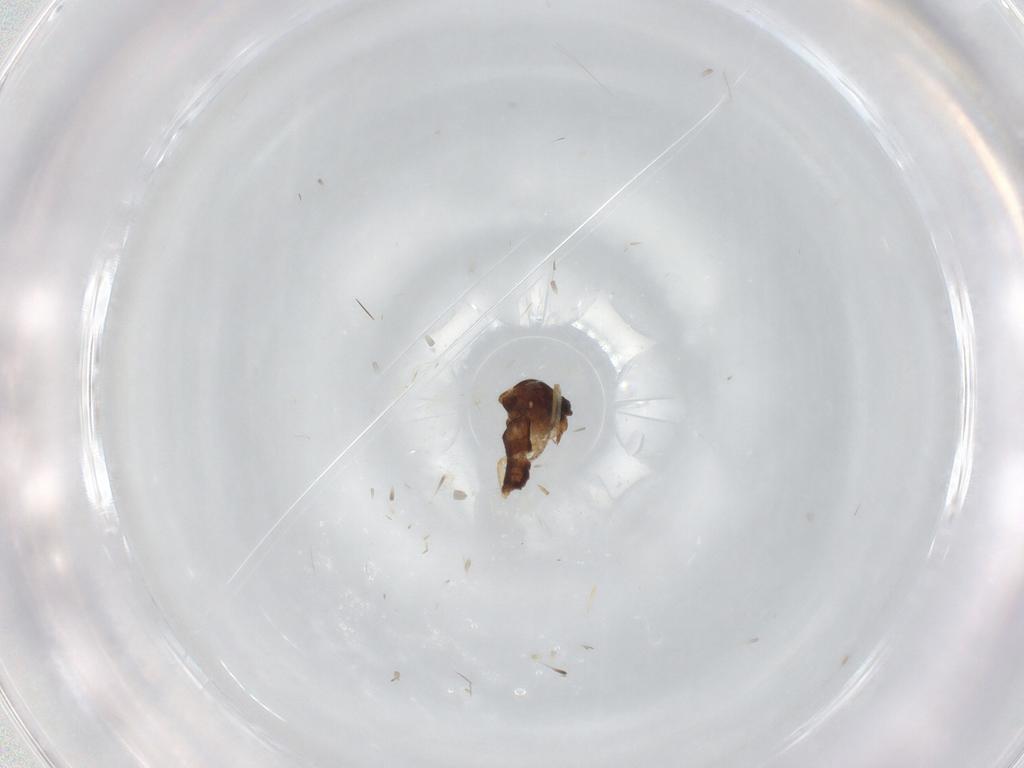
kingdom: Animalia
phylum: Arthropoda
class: Insecta
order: Diptera
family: Ceratopogonidae
